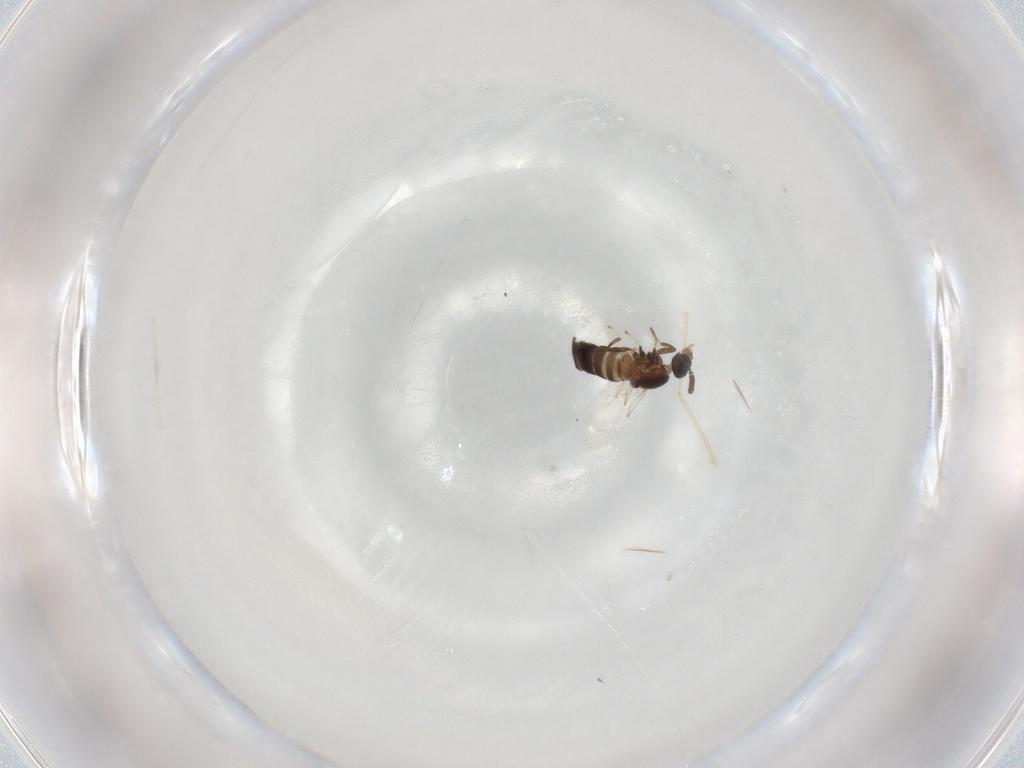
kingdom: Animalia
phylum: Arthropoda
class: Insecta
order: Diptera
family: Scatopsidae
